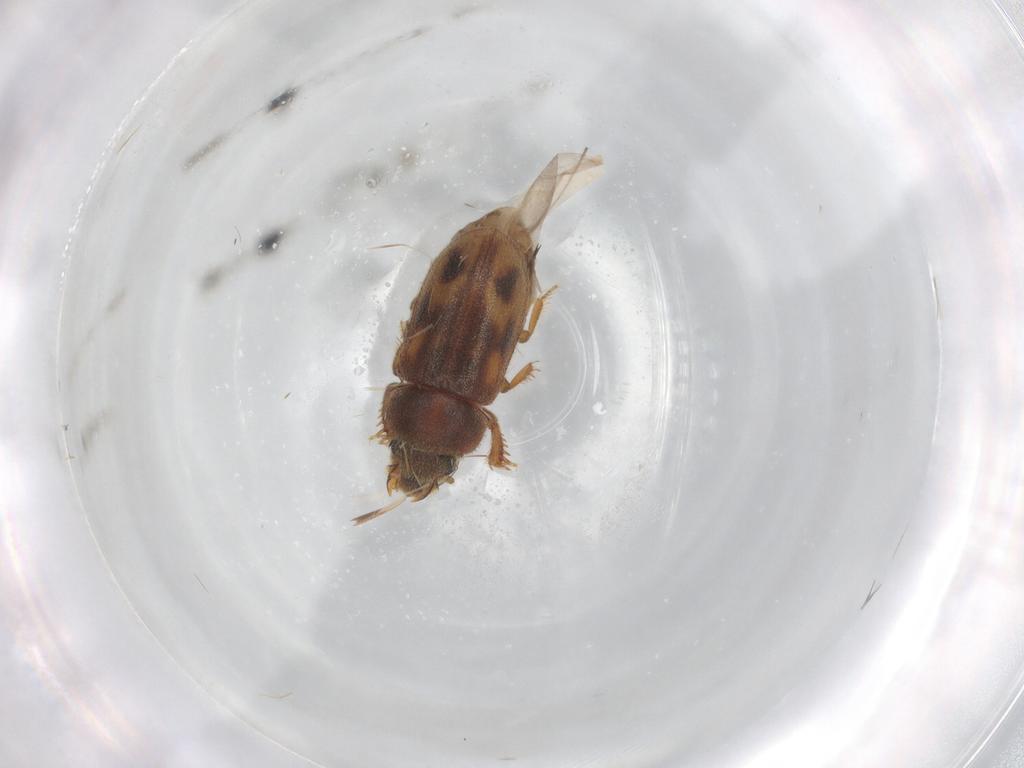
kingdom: Animalia
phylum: Arthropoda
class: Insecta
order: Coleoptera
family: Heteroceridae
